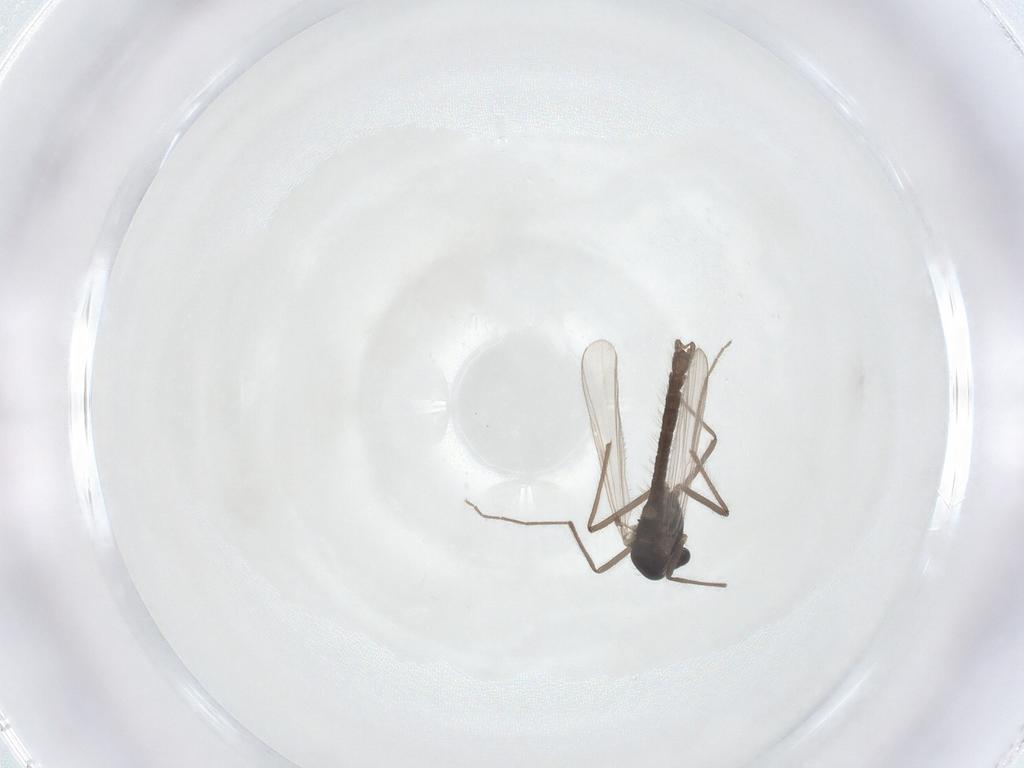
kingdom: Animalia
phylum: Arthropoda
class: Insecta
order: Diptera
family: Chironomidae
